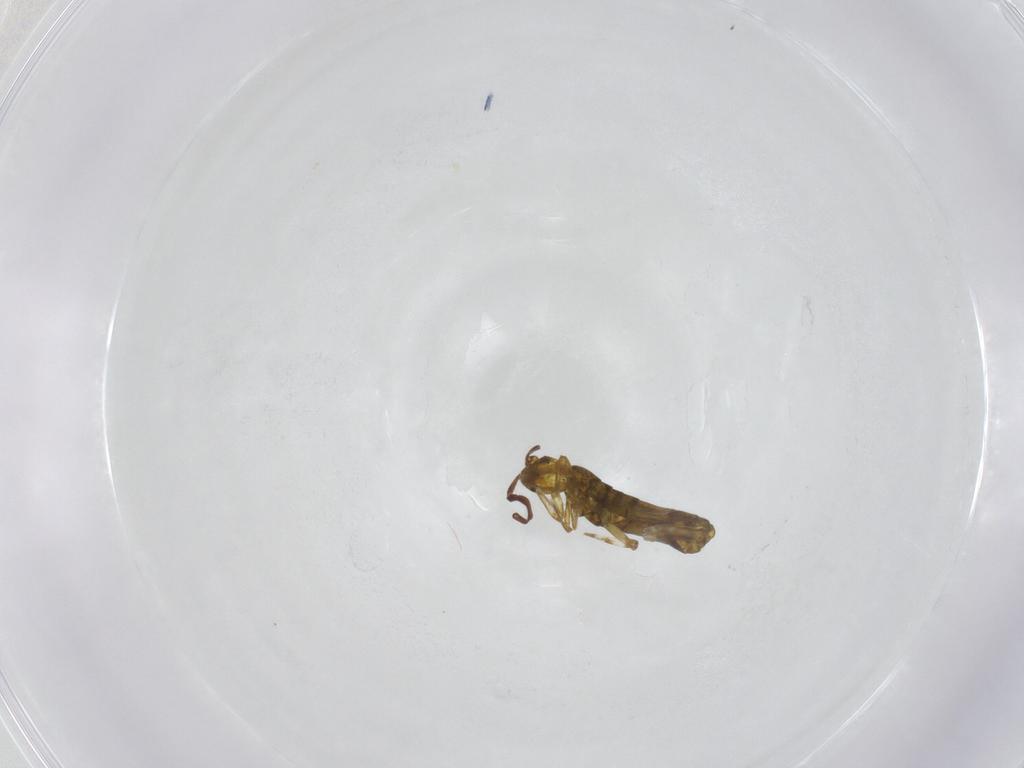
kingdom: Animalia
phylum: Arthropoda
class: Collembola
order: Entomobryomorpha
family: Tomoceridae
